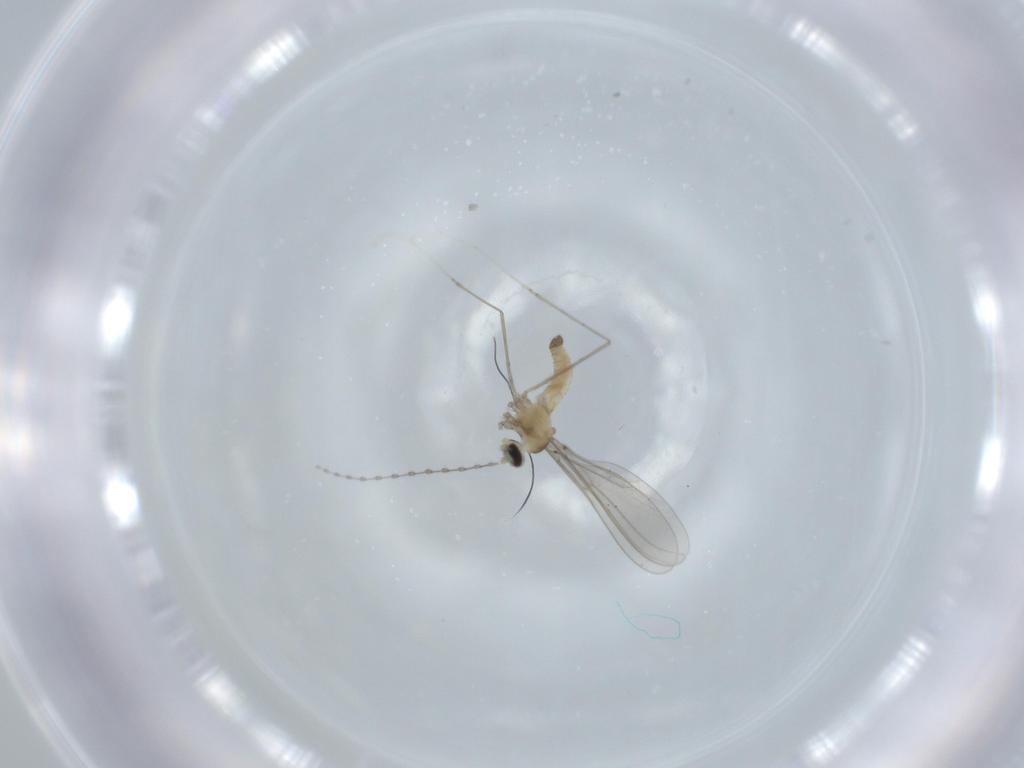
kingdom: Animalia
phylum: Arthropoda
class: Insecta
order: Diptera
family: Cecidomyiidae
